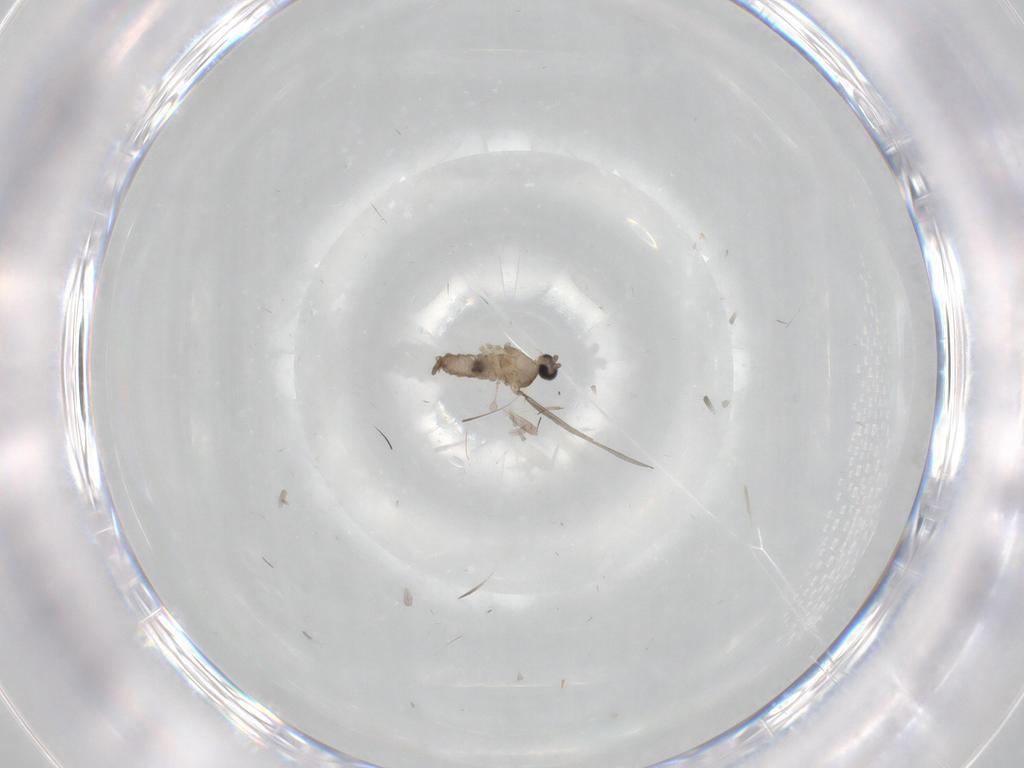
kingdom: Animalia
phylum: Arthropoda
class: Insecta
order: Diptera
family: Cecidomyiidae
